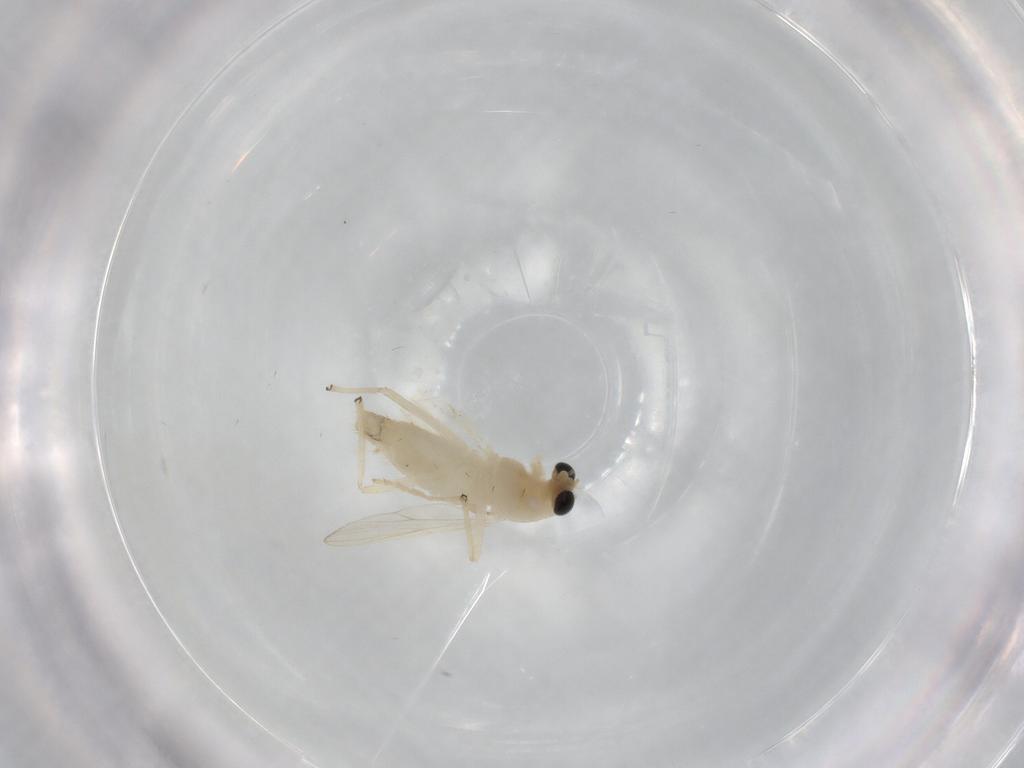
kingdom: Animalia
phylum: Arthropoda
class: Insecta
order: Diptera
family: Chironomidae
